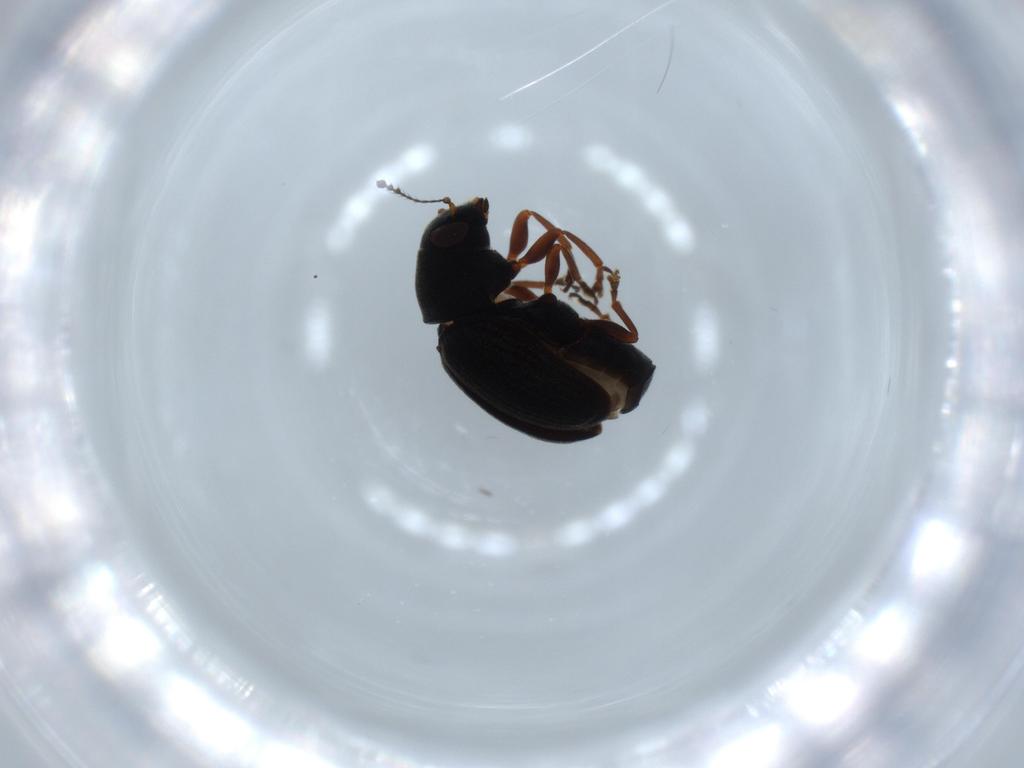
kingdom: Animalia
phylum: Arthropoda
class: Insecta
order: Coleoptera
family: Anthribidae
